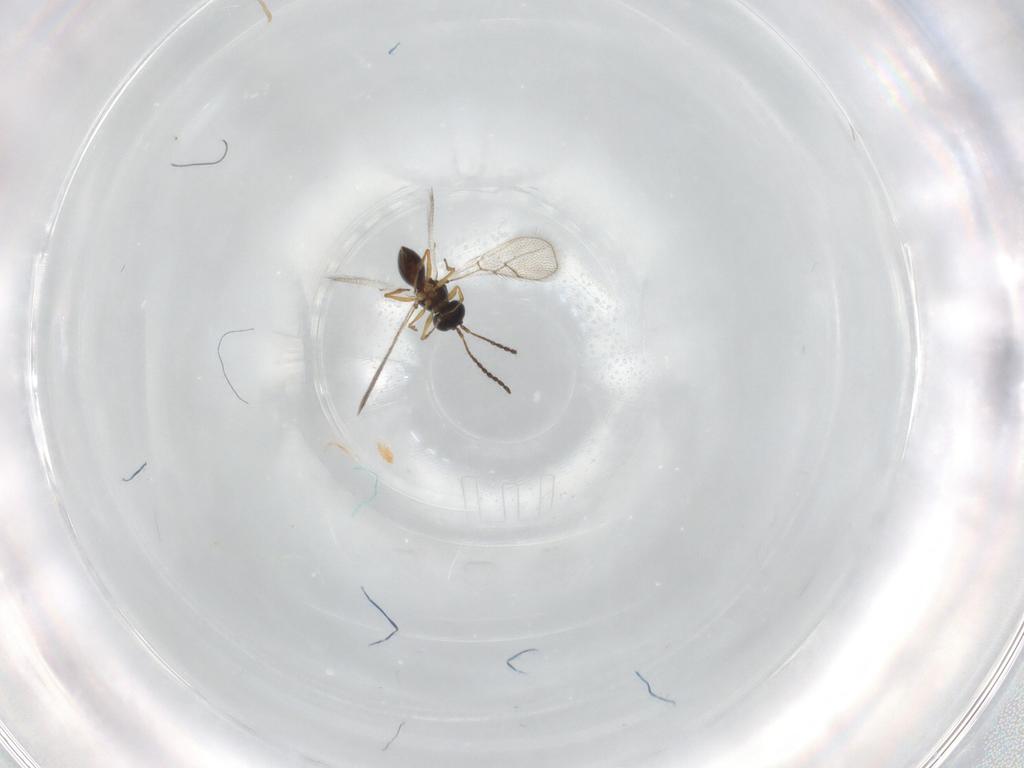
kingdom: Animalia
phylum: Arthropoda
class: Insecta
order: Hymenoptera
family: Figitidae
